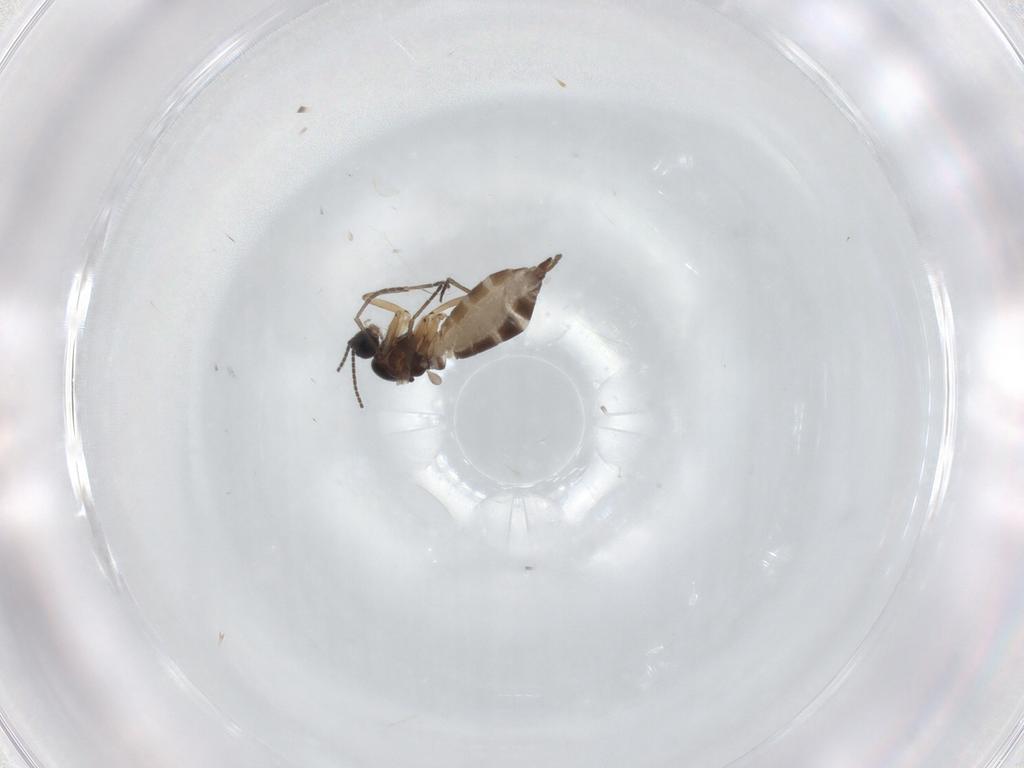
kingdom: Animalia
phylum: Arthropoda
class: Insecta
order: Diptera
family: Sciaridae
